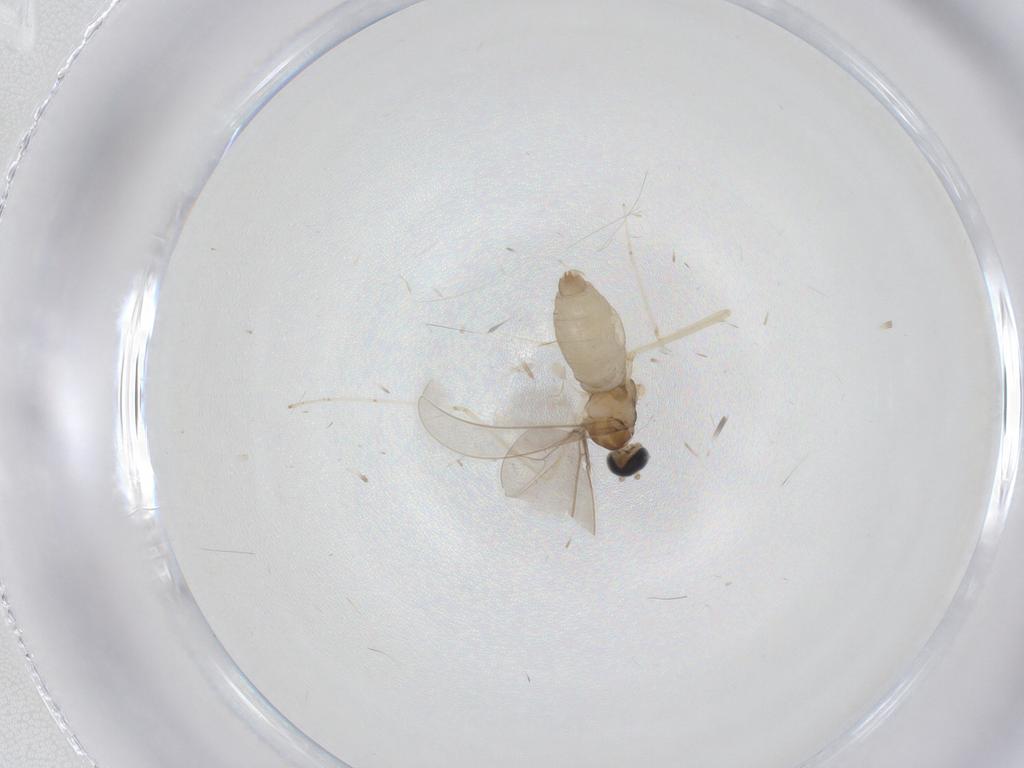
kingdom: Animalia
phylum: Arthropoda
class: Insecta
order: Diptera
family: Cecidomyiidae
